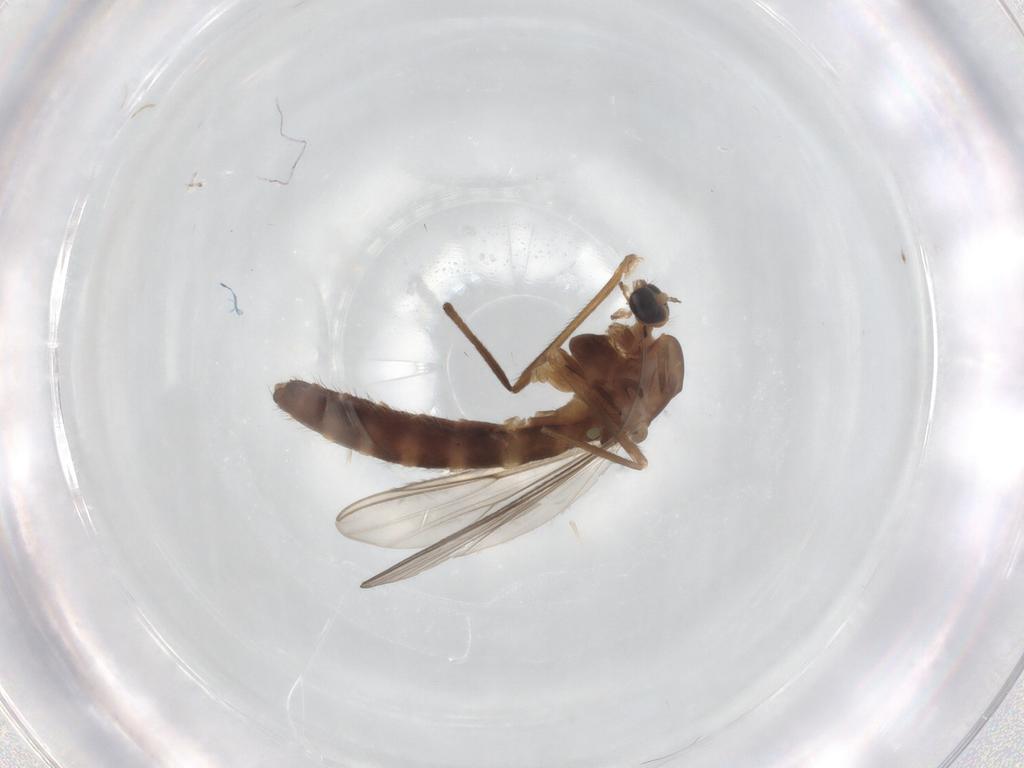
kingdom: Animalia
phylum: Arthropoda
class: Insecta
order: Diptera
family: Chironomidae
